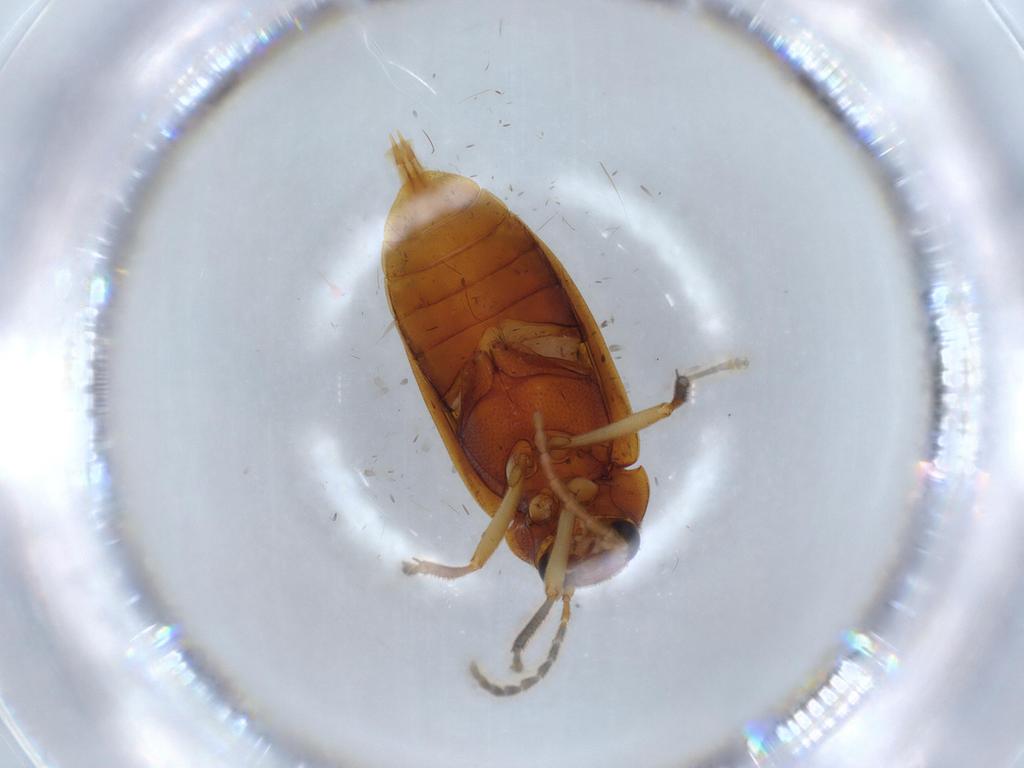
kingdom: Animalia
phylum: Arthropoda
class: Insecta
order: Coleoptera
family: Ptilodactylidae
